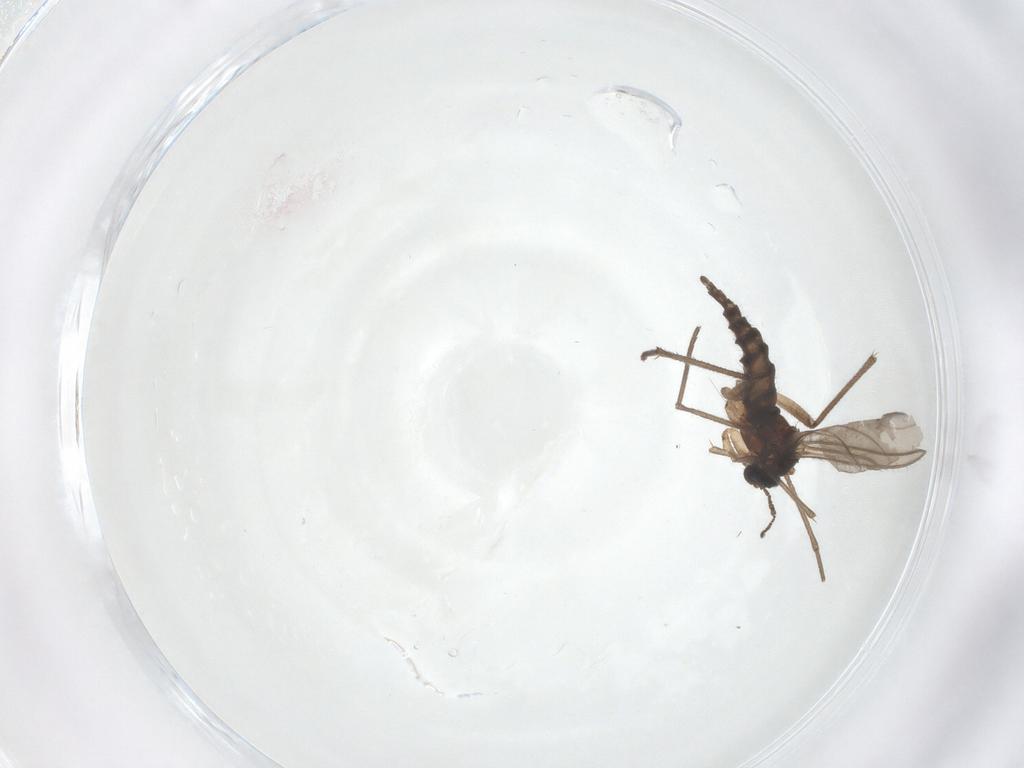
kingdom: Animalia
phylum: Arthropoda
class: Insecta
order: Diptera
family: Sciaridae
